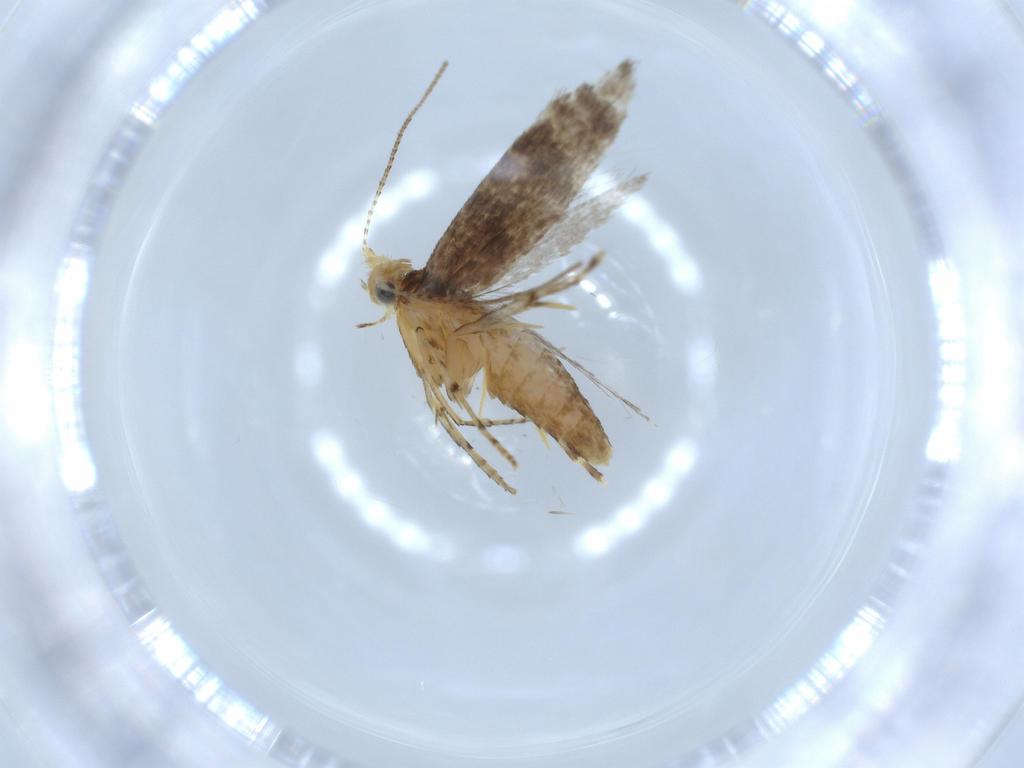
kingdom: Animalia
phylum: Arthropoda
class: Insecta
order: Lepidoptera
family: Argyresthiidae
